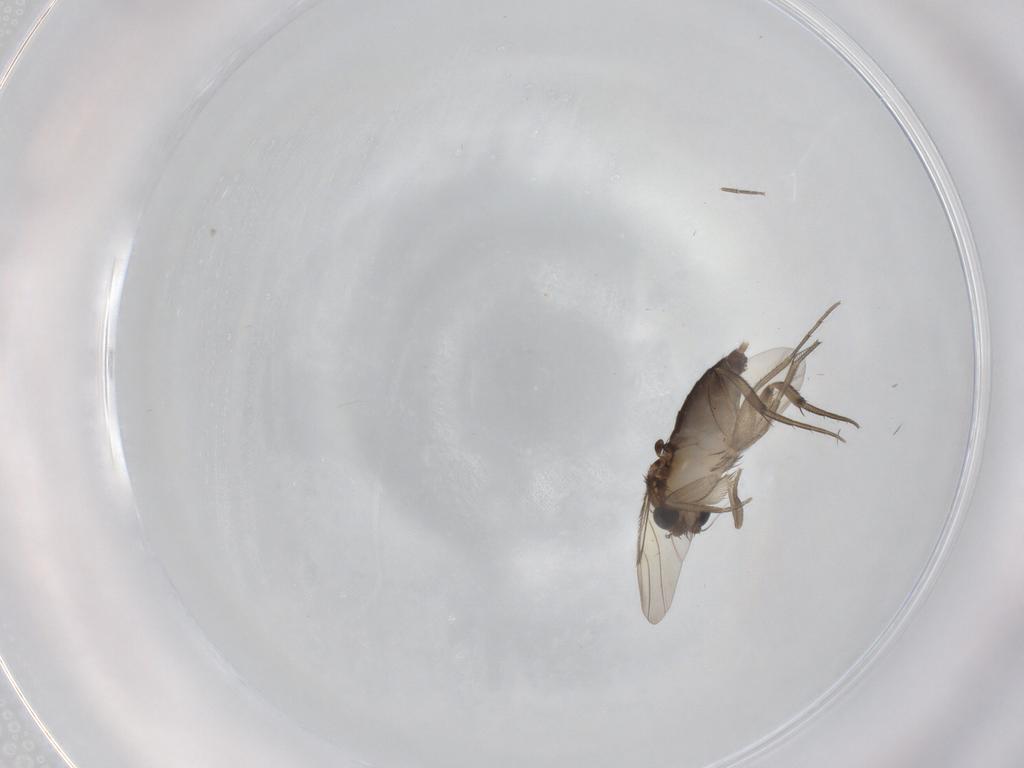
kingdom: Animalia
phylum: Arthropoda
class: Insecta
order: Diptera
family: Phoridae
